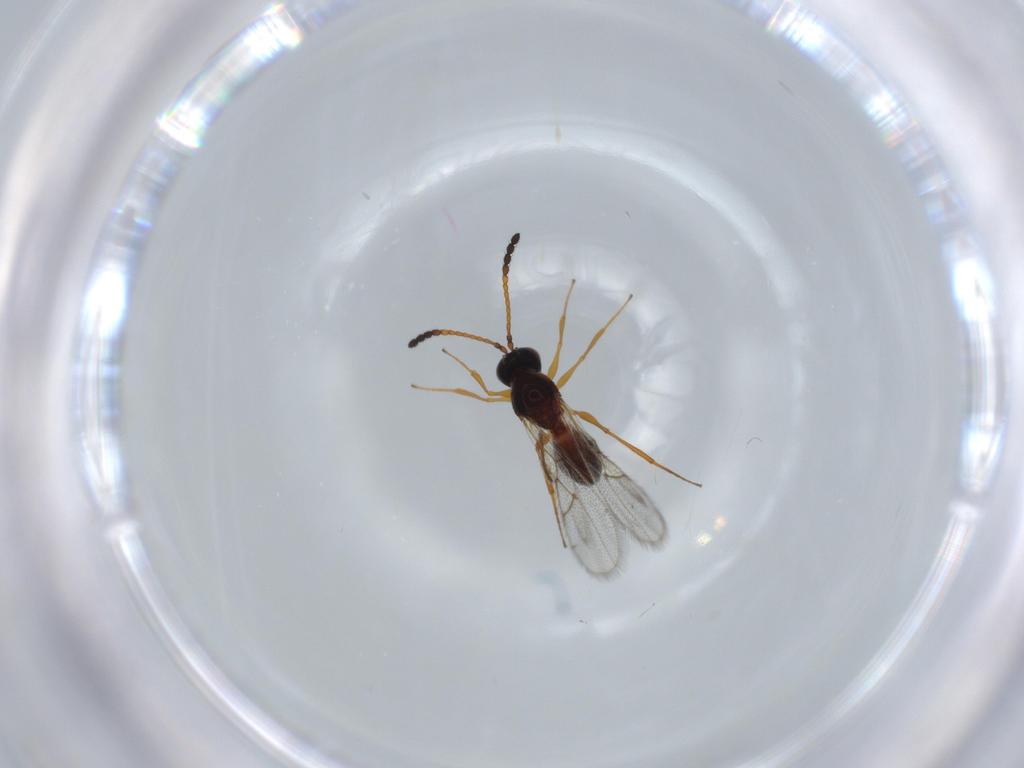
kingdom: Animalia
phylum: Arthropoda
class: Insecta
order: Hymenoptera
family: Figitidae
